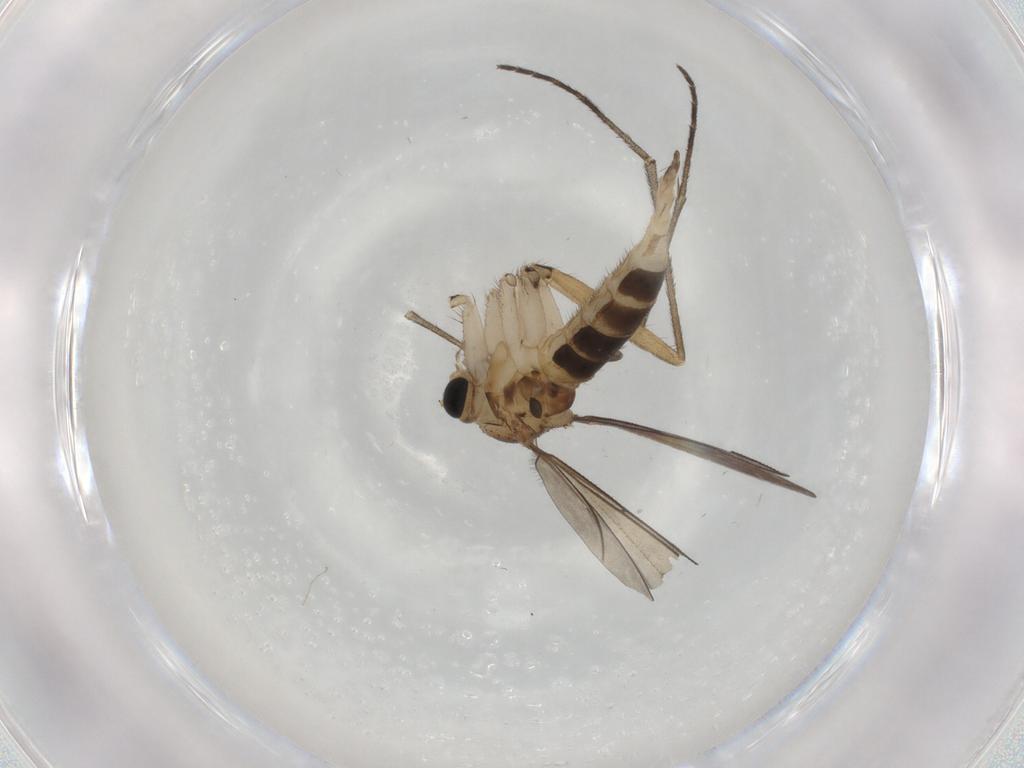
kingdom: Animalia
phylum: Arthropoda
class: Insecta
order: Diptera
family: Sciaridae
